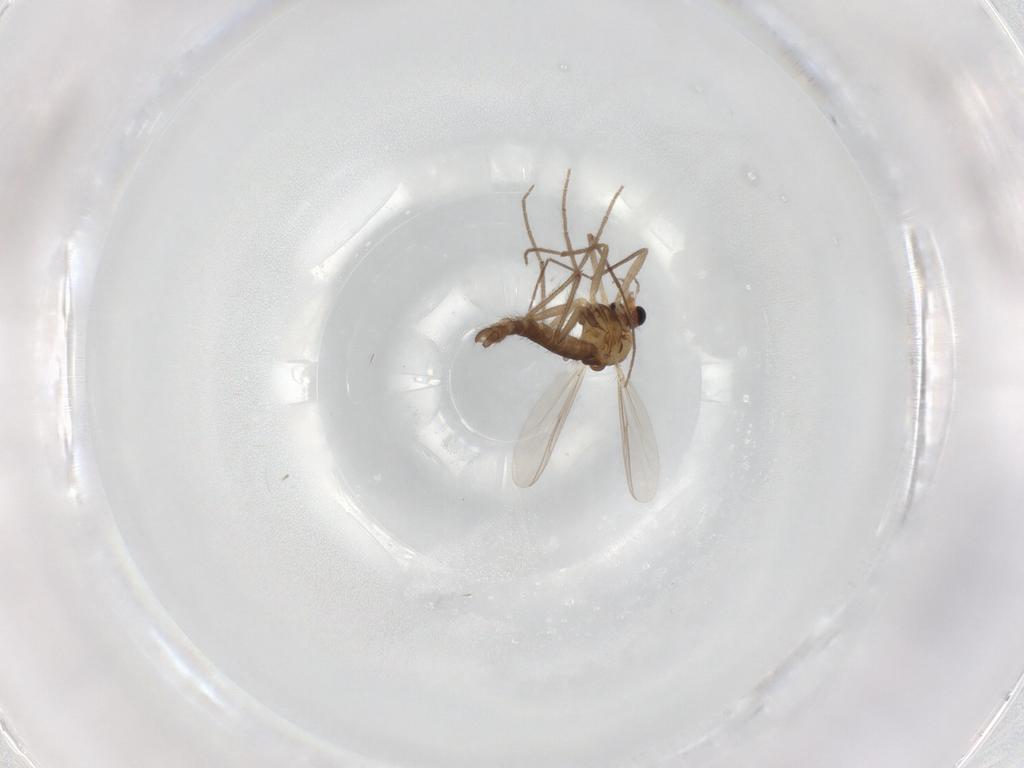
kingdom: Animalia
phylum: Arthropoda
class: Insecta
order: Diptera
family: Chironomidae
